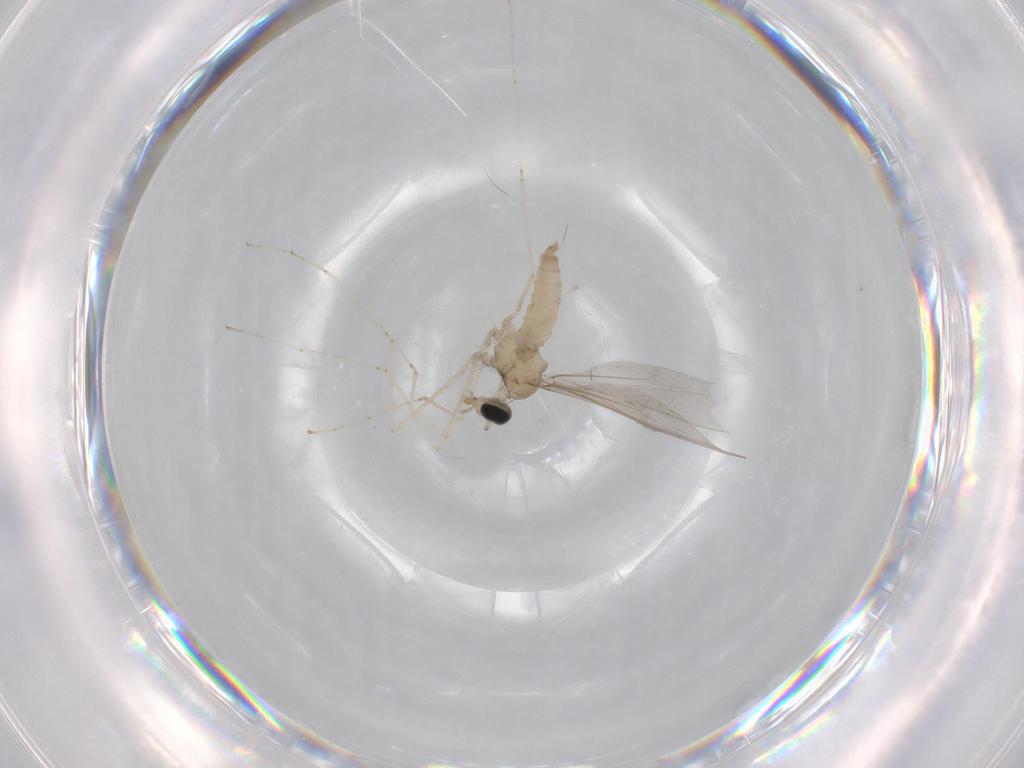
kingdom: Animalia
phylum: Arthropoda
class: Insecta
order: Diptera
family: Cecidomyiidae
